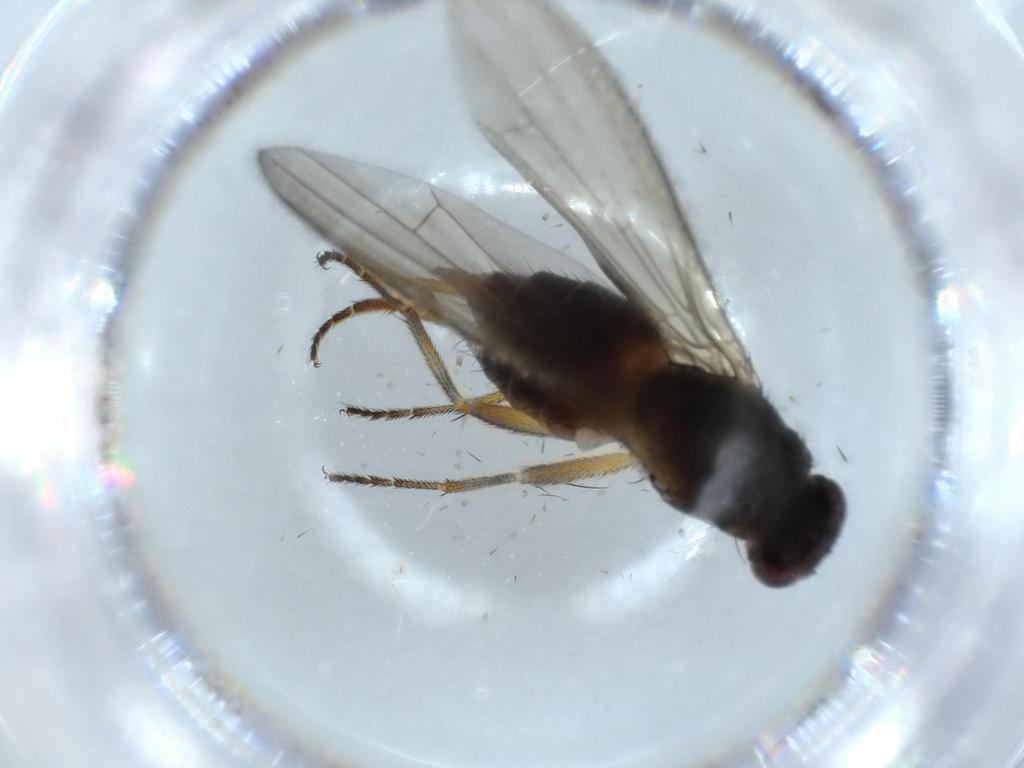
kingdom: Animalia
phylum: Arthropoda
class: Insecta
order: Diptera
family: Heleomyzidae
